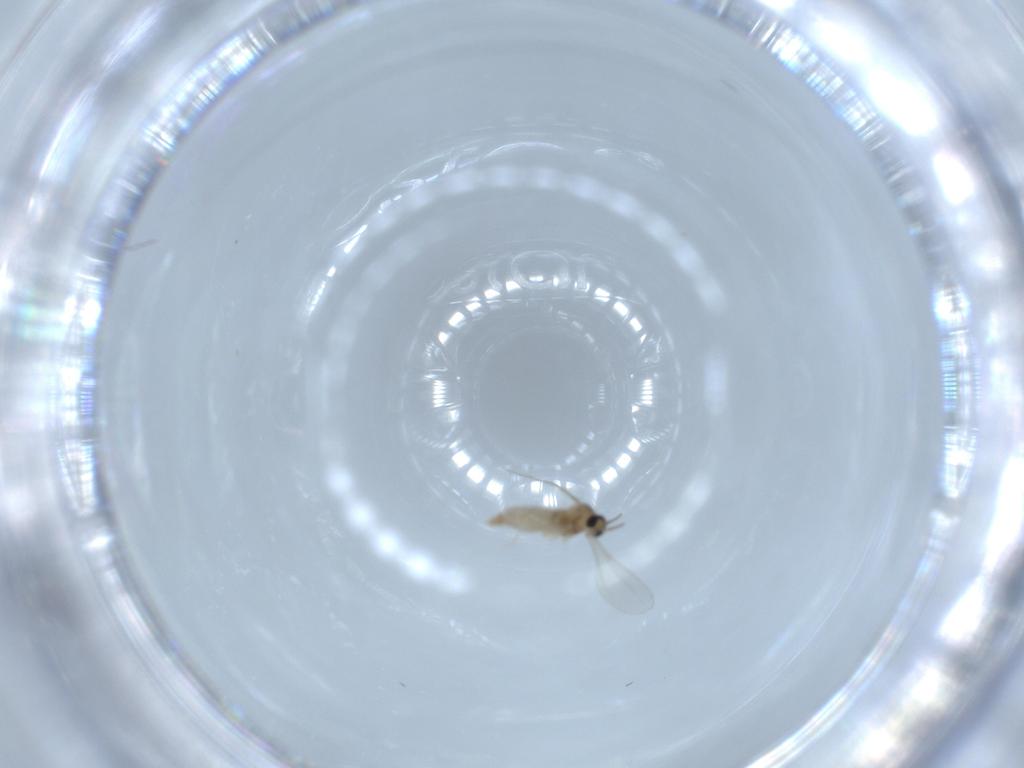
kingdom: Animalia
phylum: Arthropoda
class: Insecta
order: Diptera
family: Cecidomyiidae
